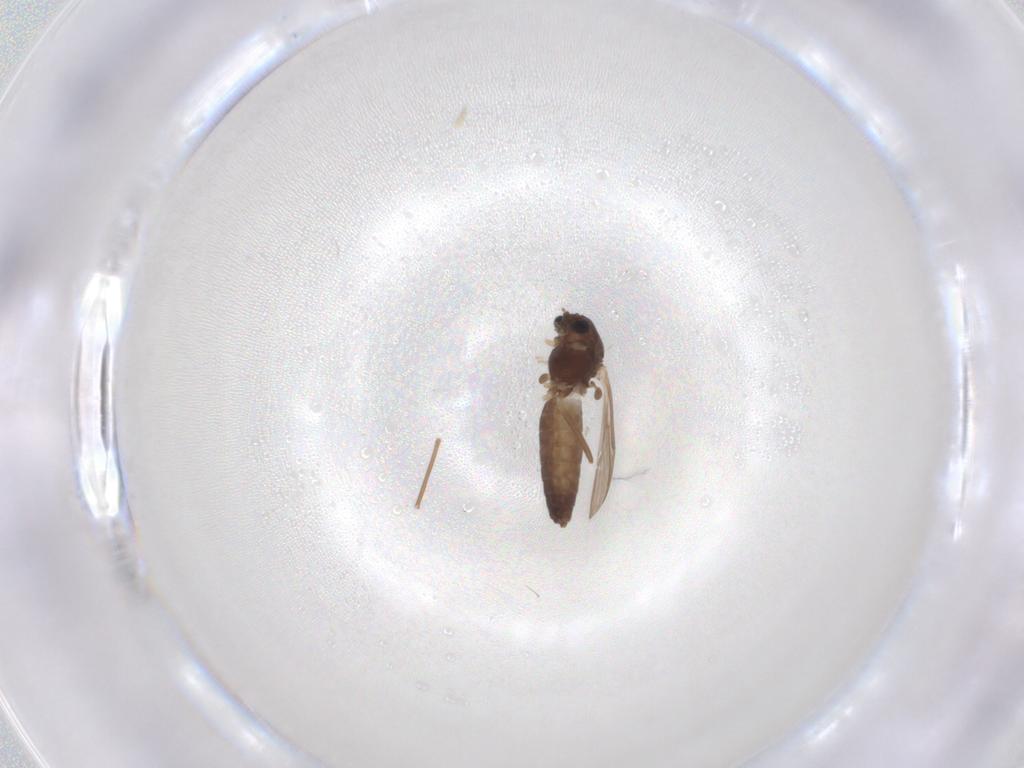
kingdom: Animalia
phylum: Arthropoda
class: Insecta
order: Diptera
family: Chironomidae
